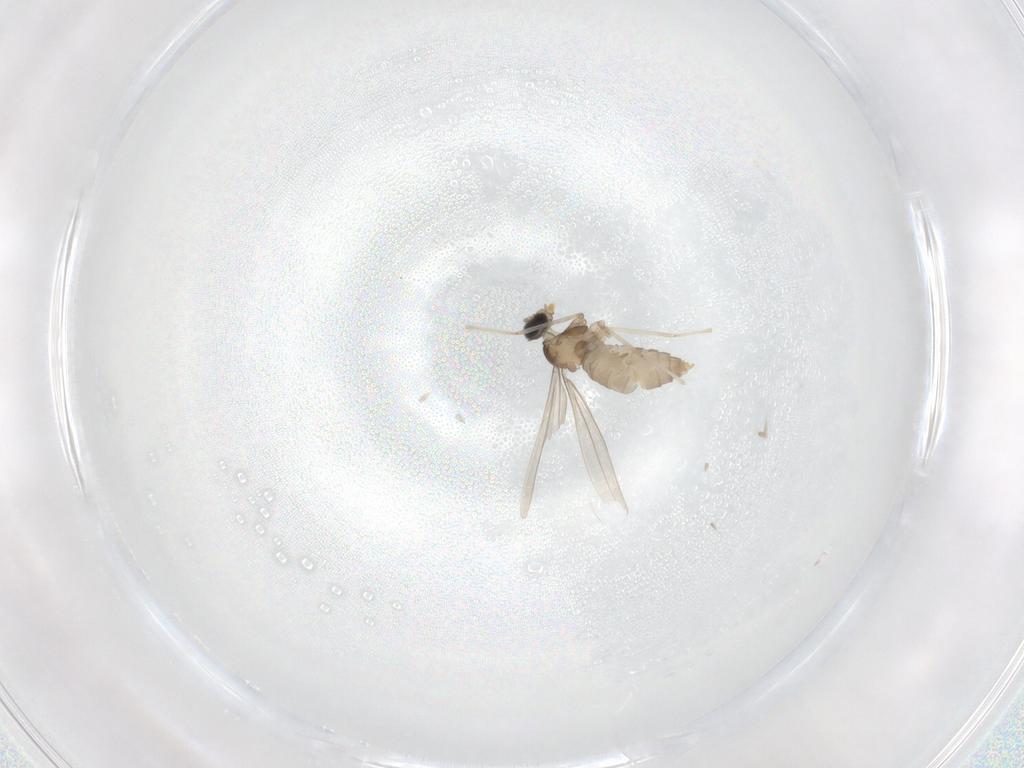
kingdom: Animalia
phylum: Arthropoda
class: Insecta
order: Diptera
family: Cecidomyiidae
